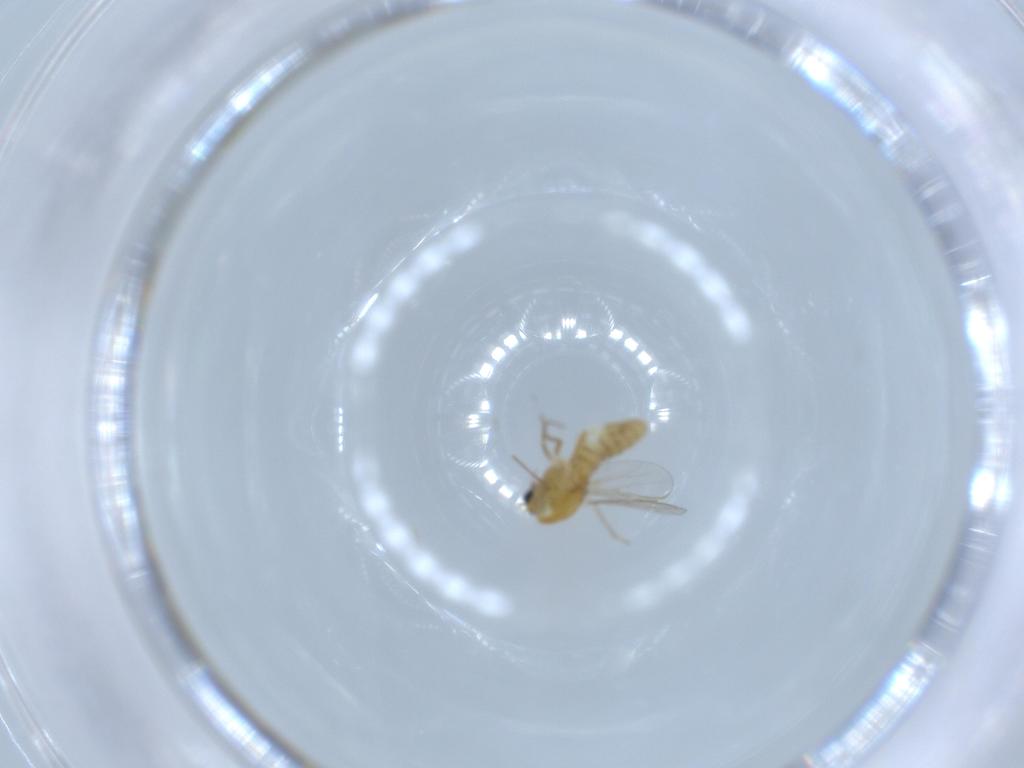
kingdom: Animalia
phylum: Arthropoda
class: Insecta
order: Diptera
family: Chironomidae
